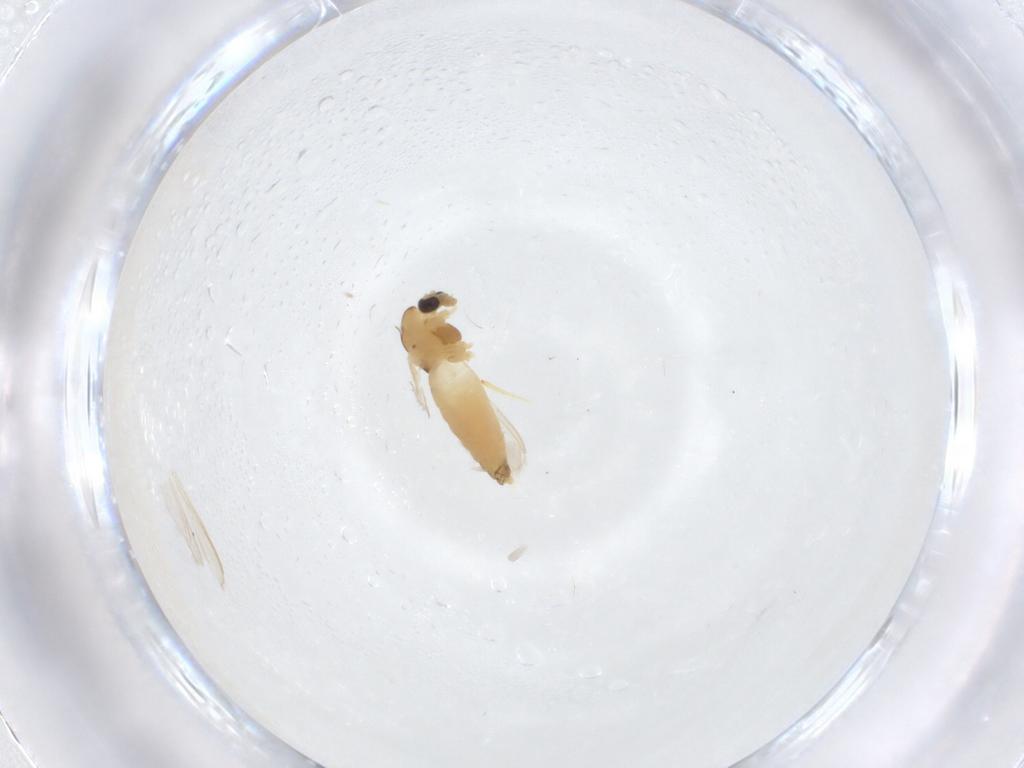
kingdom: Animalia
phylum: Arthropoda
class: Insecta
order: Diptera
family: Chironomidae
